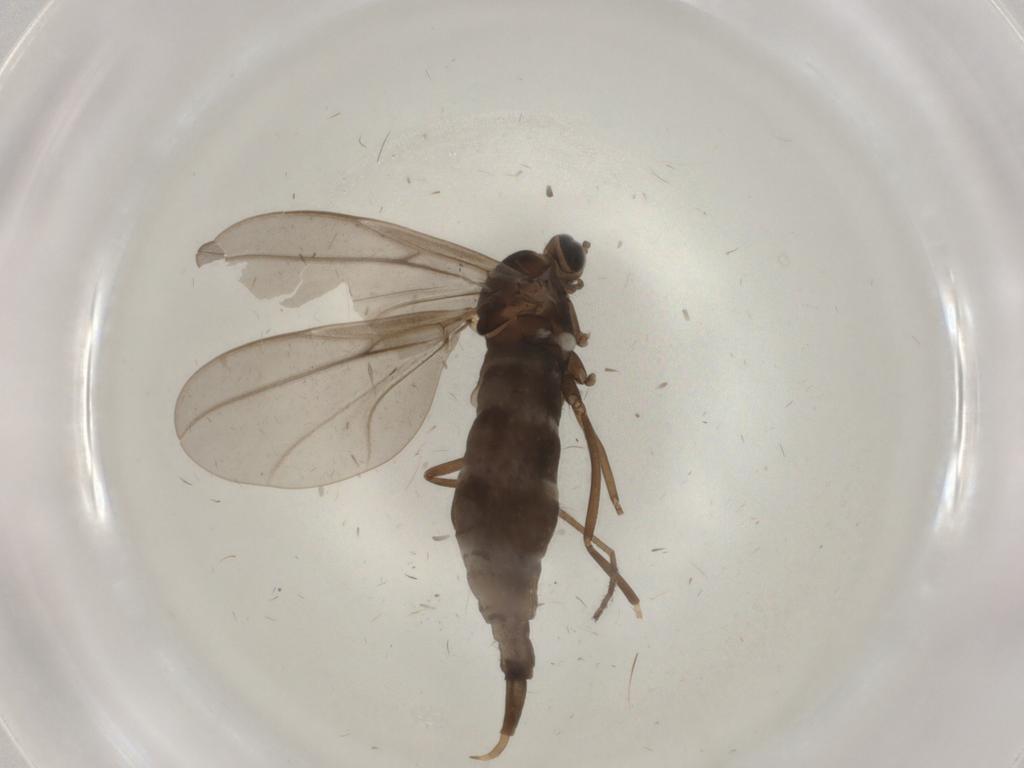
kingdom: Animalia
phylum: Arthropoda
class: Insecta
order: Diptera
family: Cecidomyiidae
